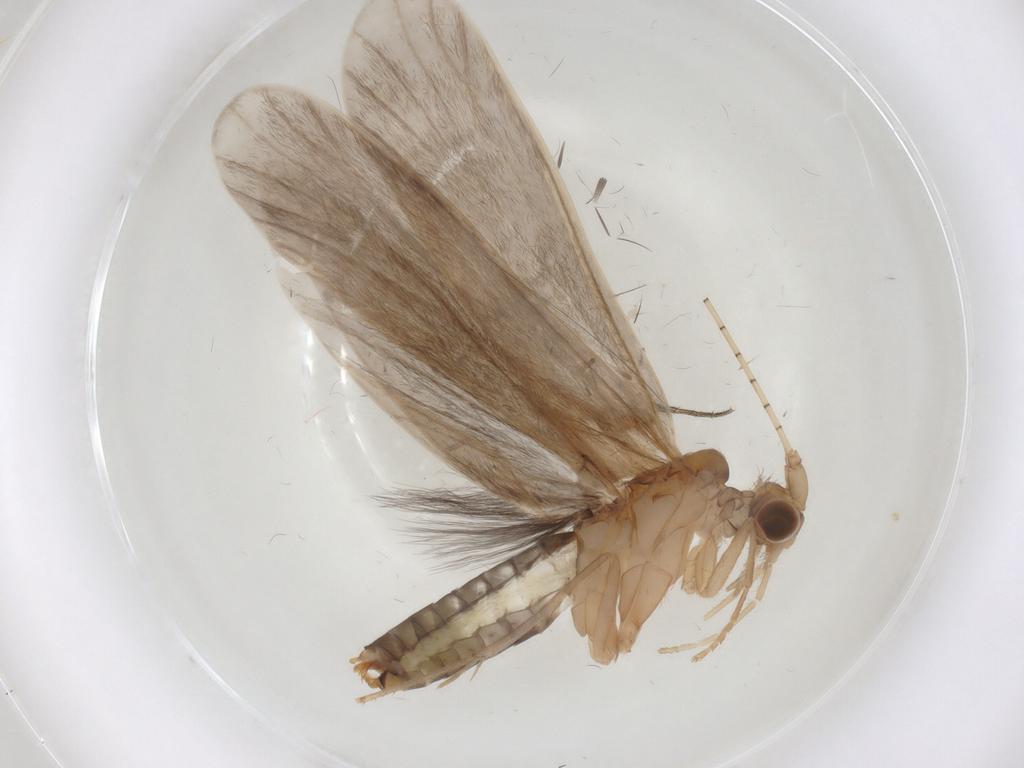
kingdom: Animalia
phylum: Arthropoda
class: Insecta
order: Trichoptera
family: Leptoceridae
